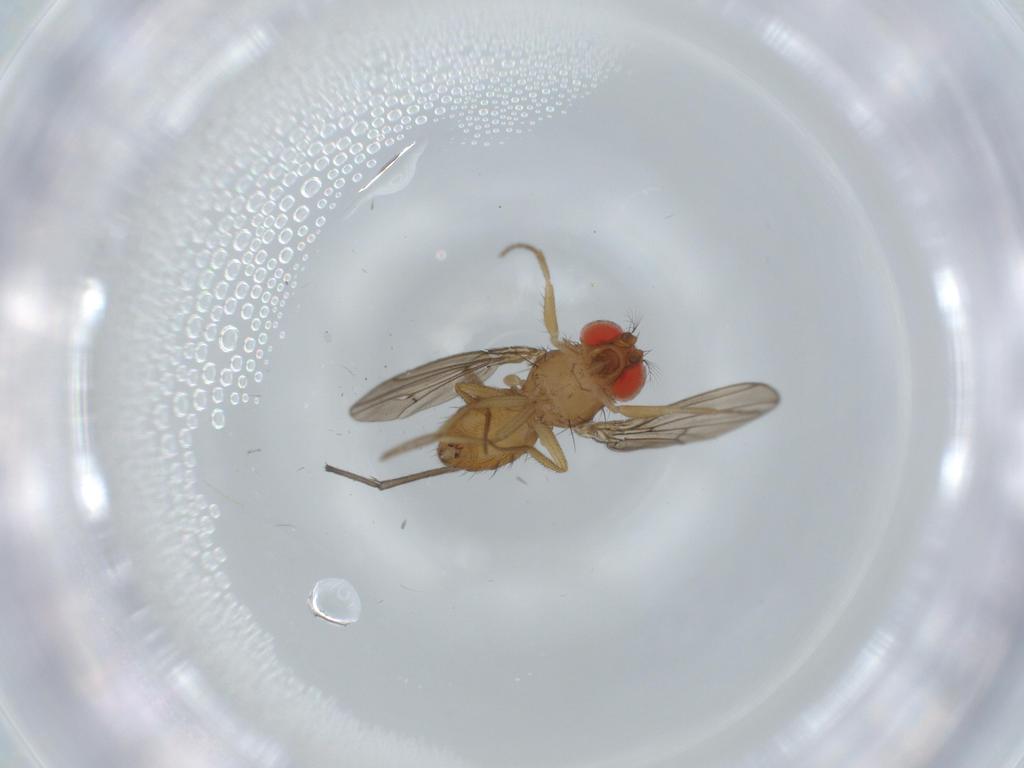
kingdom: Animalia
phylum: Arthropoda
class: Insecta
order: Diptera
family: Drosophilidae
